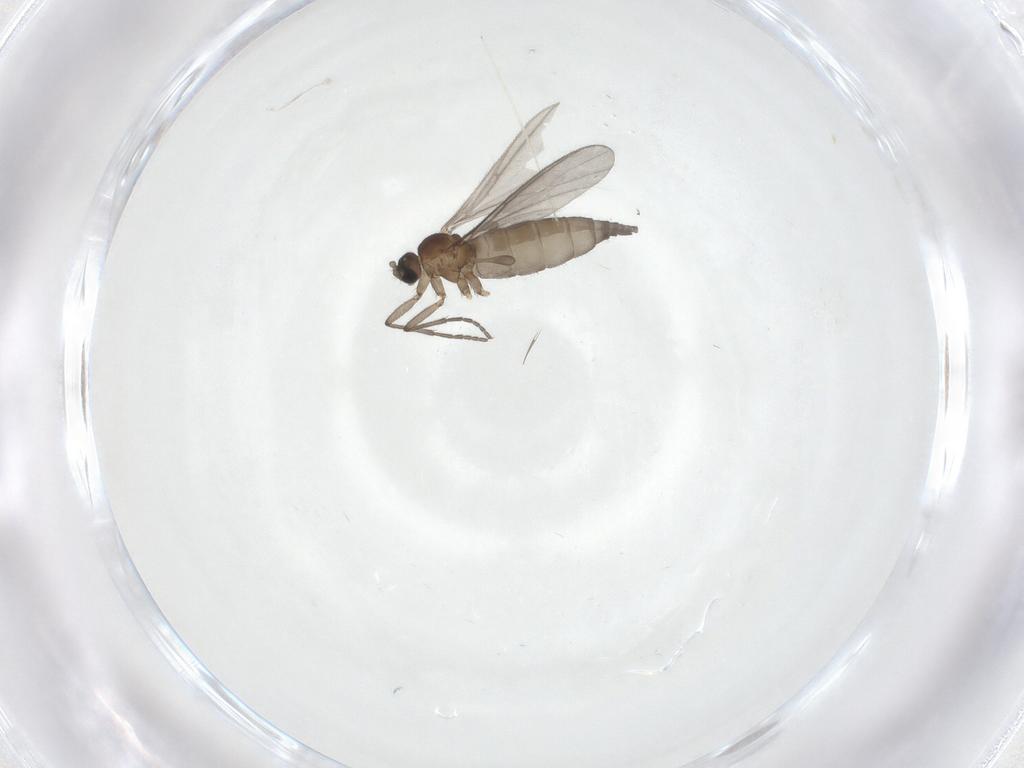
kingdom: Animalia
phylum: Arthropoda
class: Insecta
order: Diptera
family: Sciaridae
